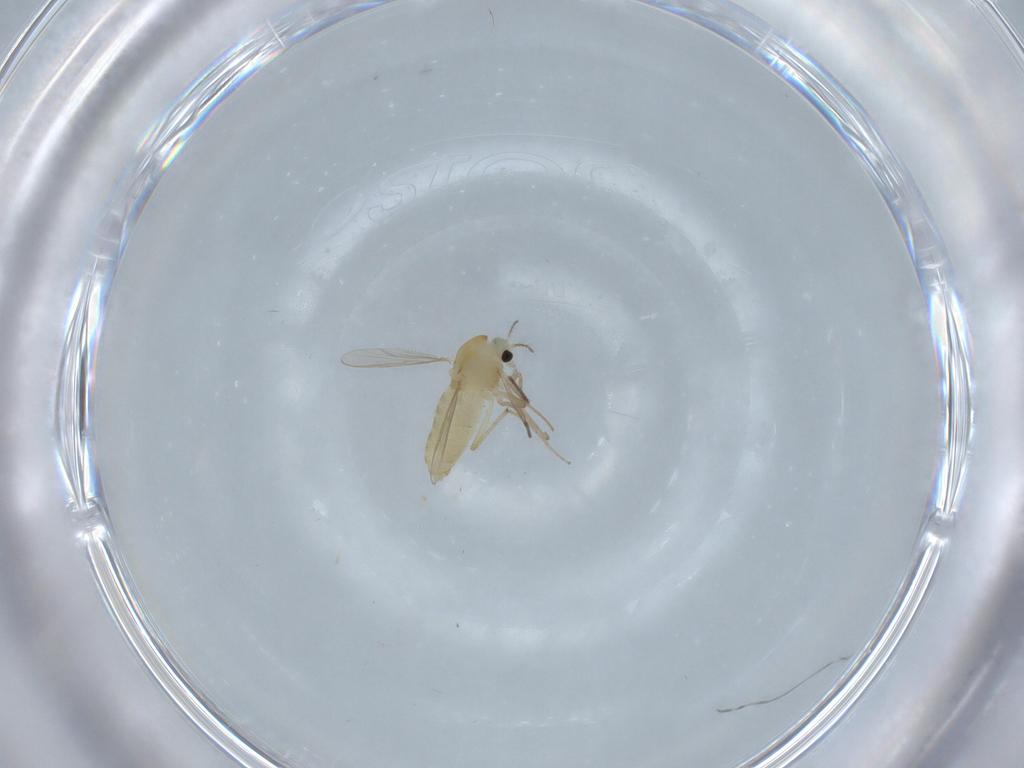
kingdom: Animalia
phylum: Arthropoda
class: Insecta
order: Diptera
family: Cecidomyiidae
